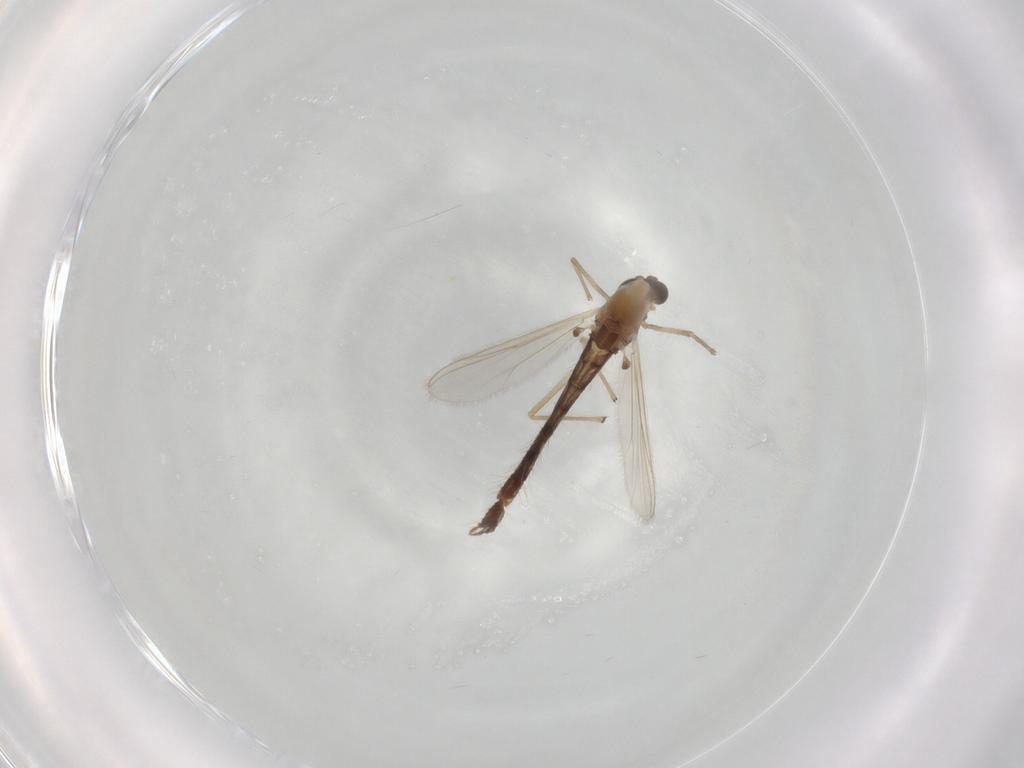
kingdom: Animalia
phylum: Arthropoda
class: Insecta
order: Diptera
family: Chironomidae
